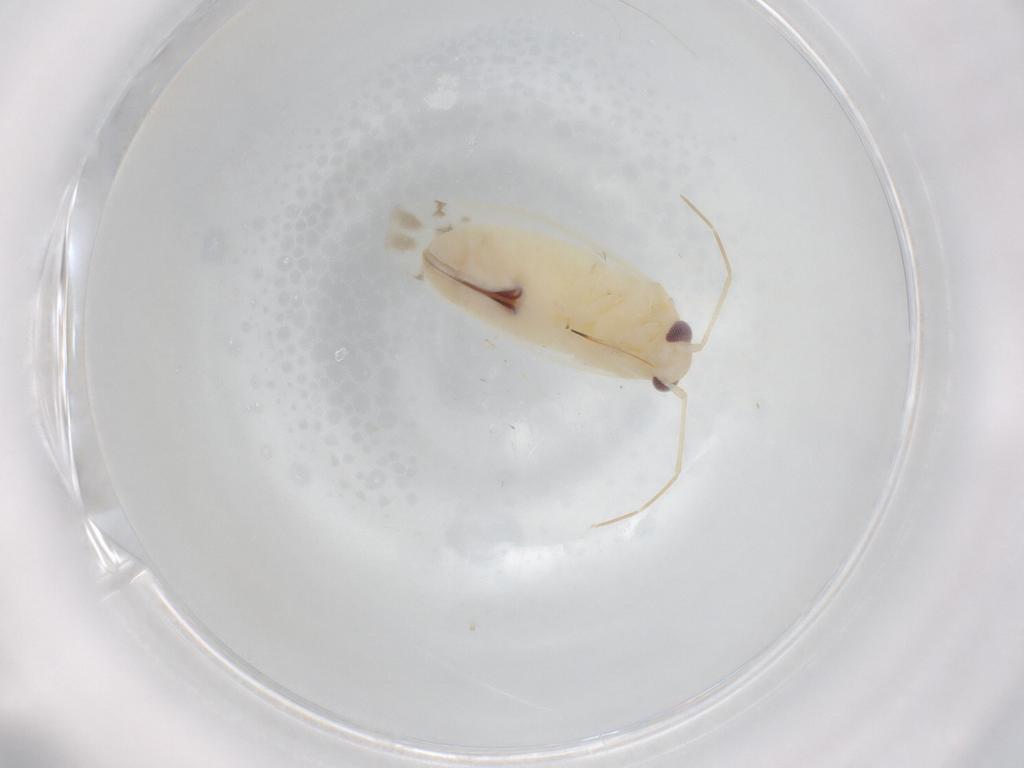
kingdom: Animalia
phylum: Arthropoda
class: Insecta
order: Hemiptera
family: Miridae
